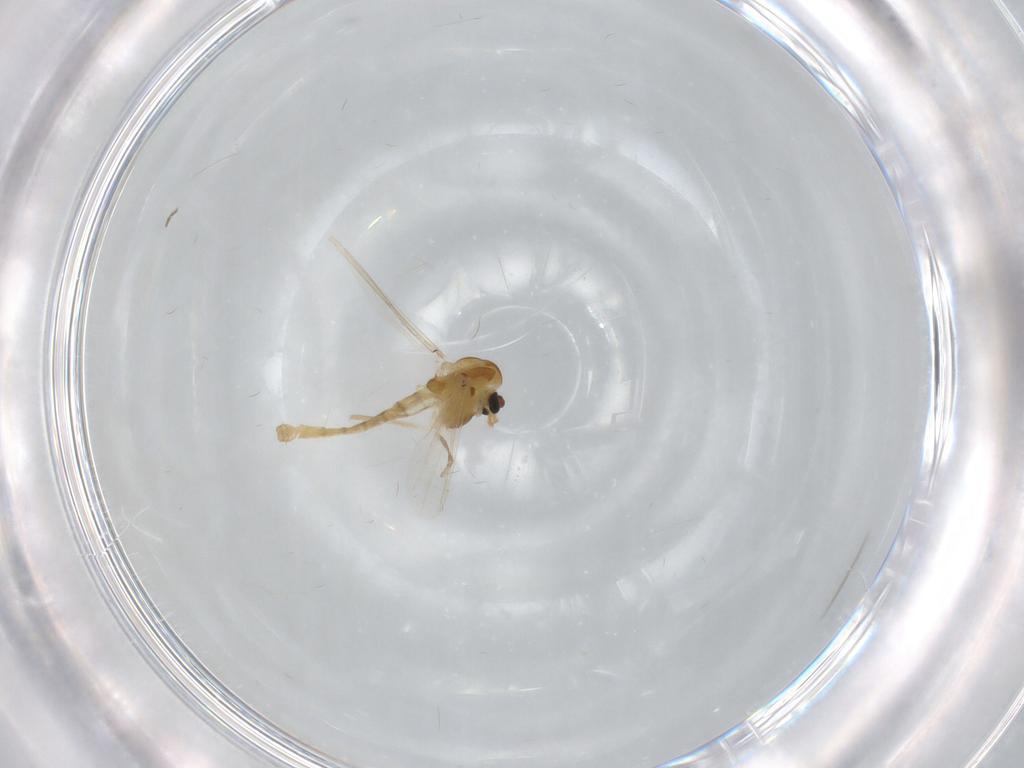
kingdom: Animalia
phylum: Arthropoda
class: Insecta
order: Diptera
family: Chironomidae
